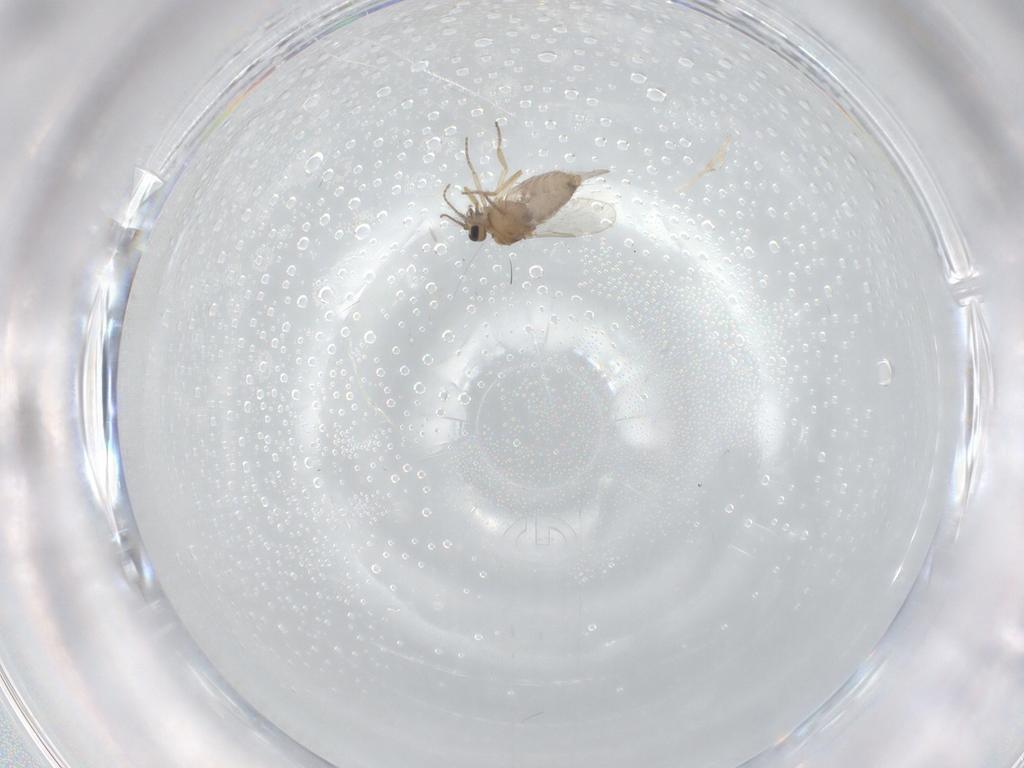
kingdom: Animalia
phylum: Arthropoda
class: Insecta
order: Diptera
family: Ceratopogonidae
